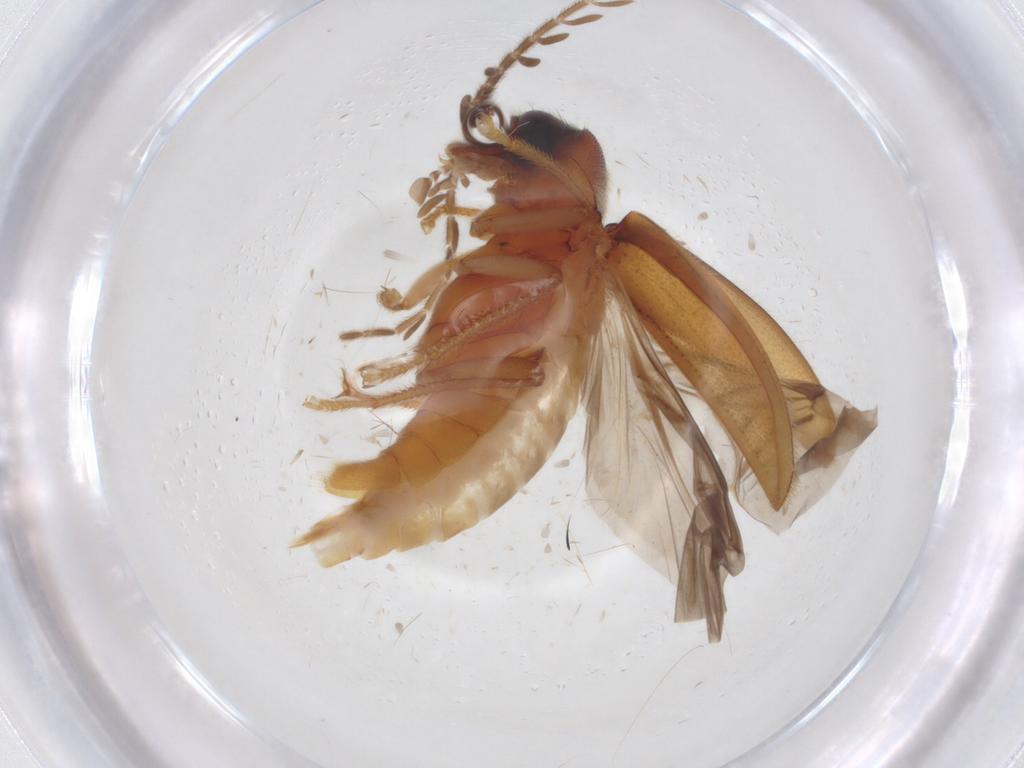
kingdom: Animalia
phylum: Arthropoda
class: Insecta
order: Coleoptera
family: Ptilodactylidae
